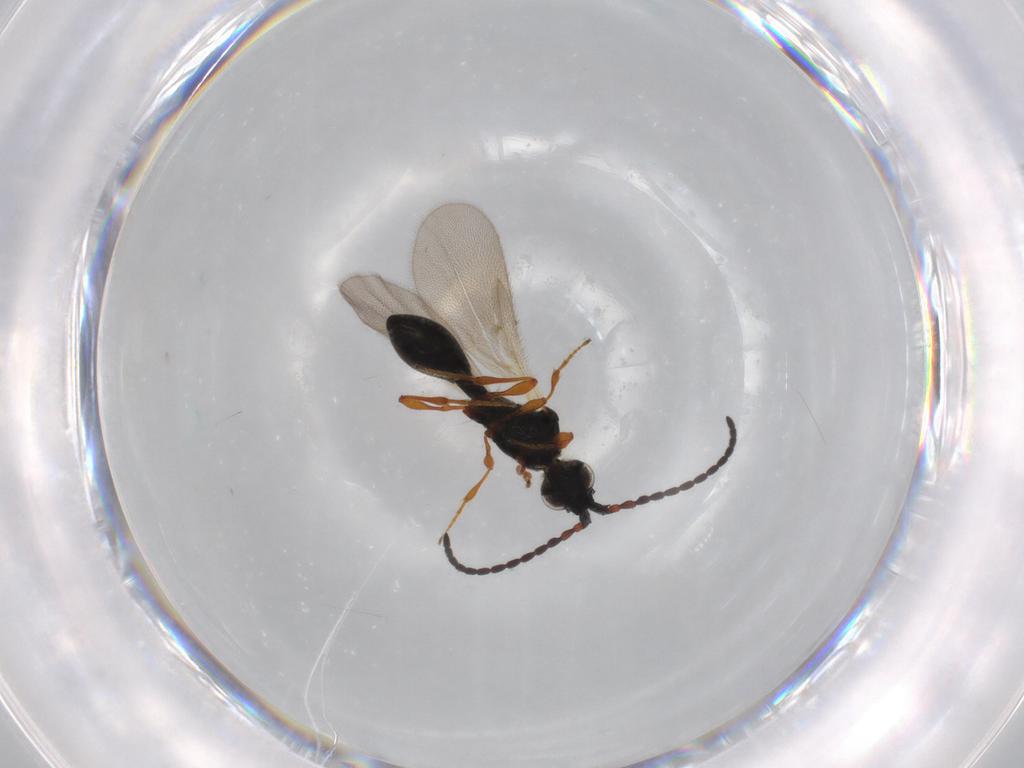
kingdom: Animalia
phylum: Arthropoda
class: Insecta
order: Hymenoptera
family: Diapriidae
